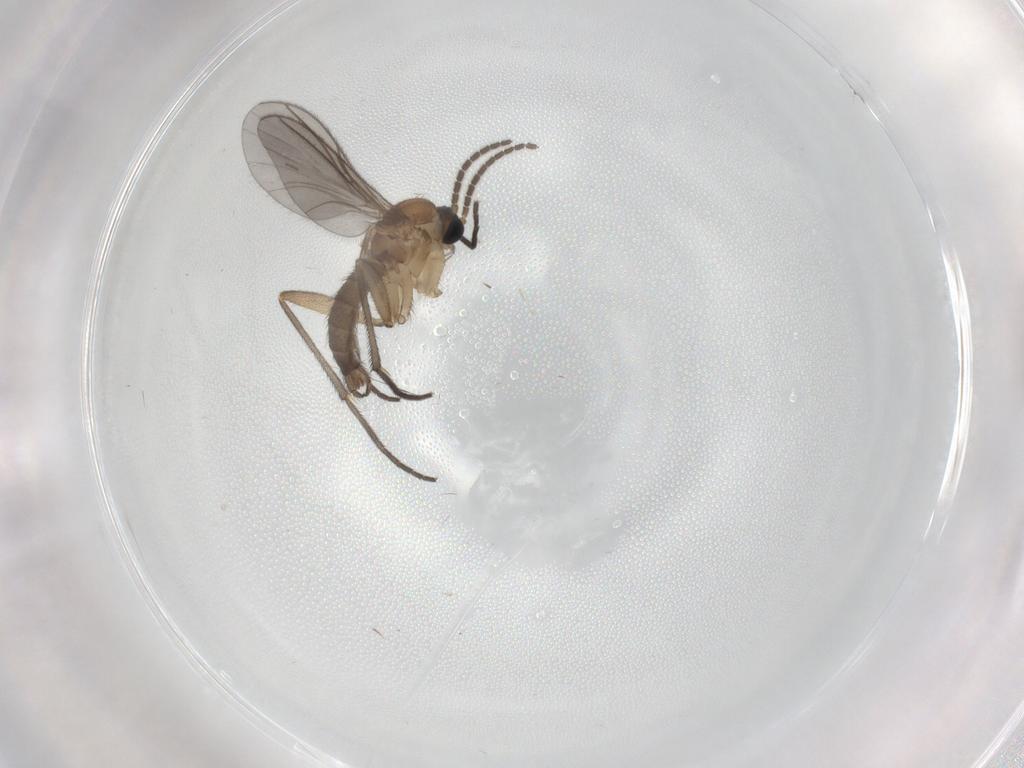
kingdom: Animalia
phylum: Arthropoda
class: Insecta
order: Diptera
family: Sciaridae
